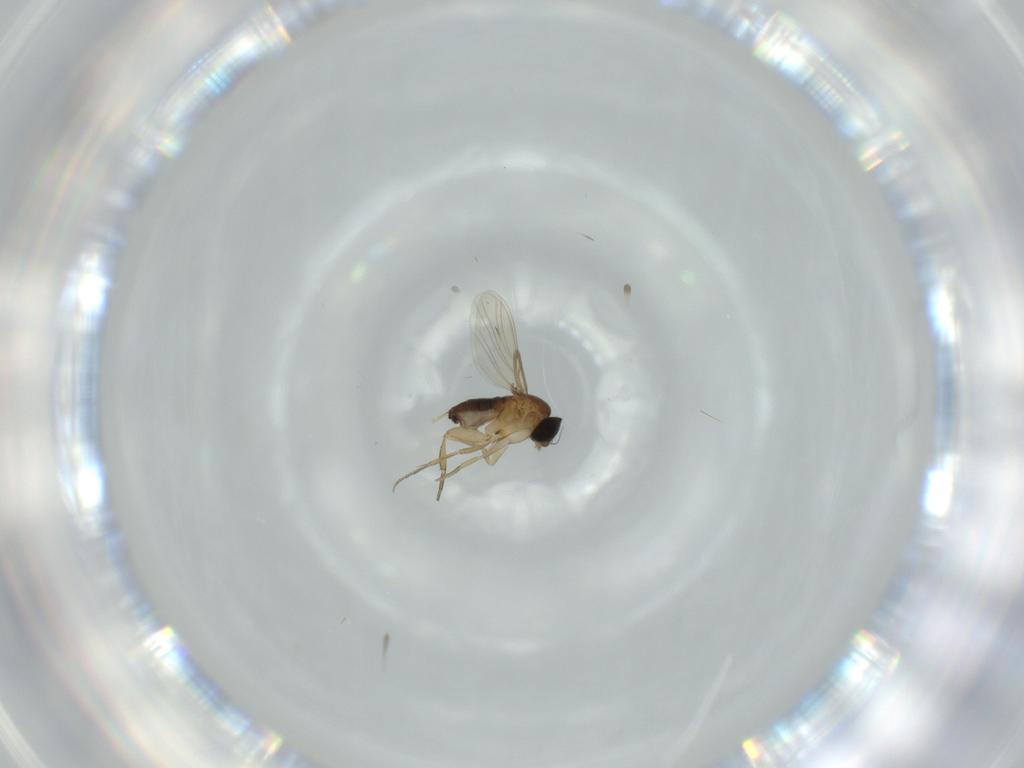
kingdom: Animalia
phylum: Arthropoda
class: Insecta
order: Diptera
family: Phoridae
